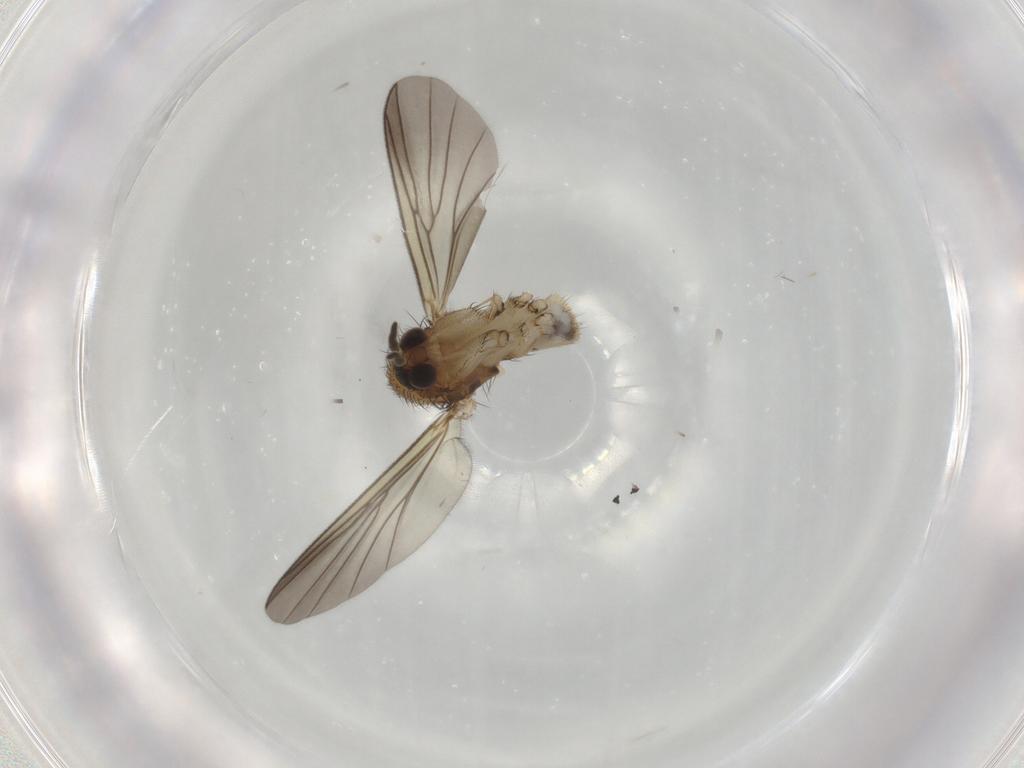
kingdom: Animalia
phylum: Arthropoda
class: Insecta
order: Diptera
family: Mycetophilidae
